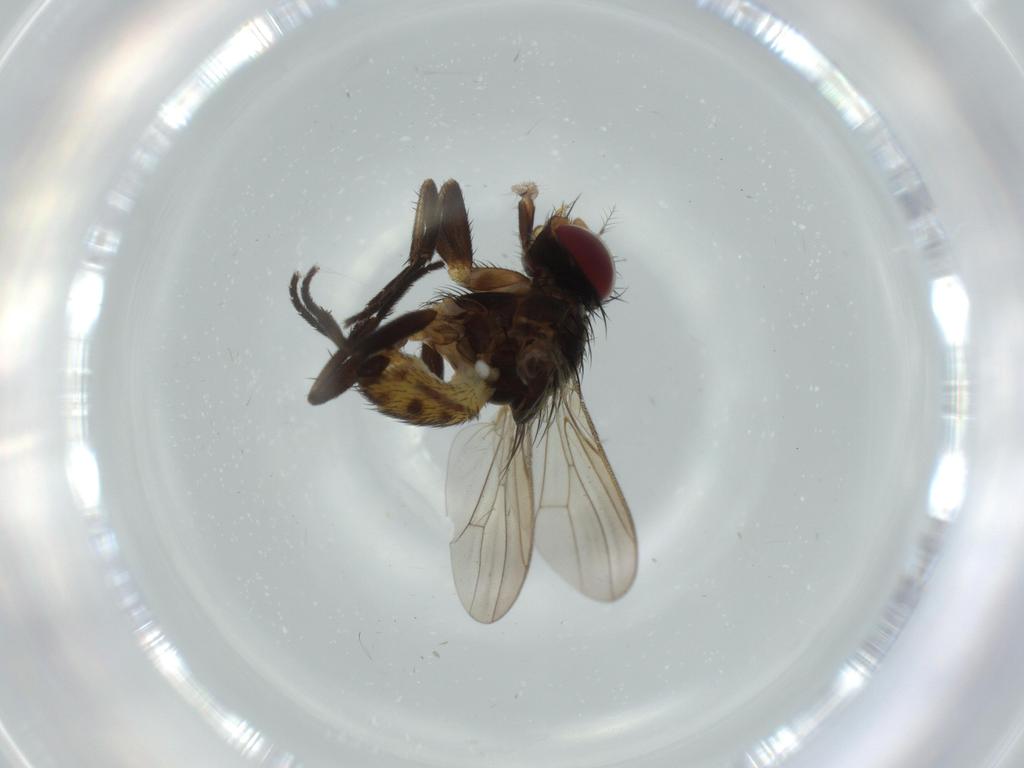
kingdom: Animalia
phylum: Arthropoda
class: Insecta
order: Diptera
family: Anthomyiidae
